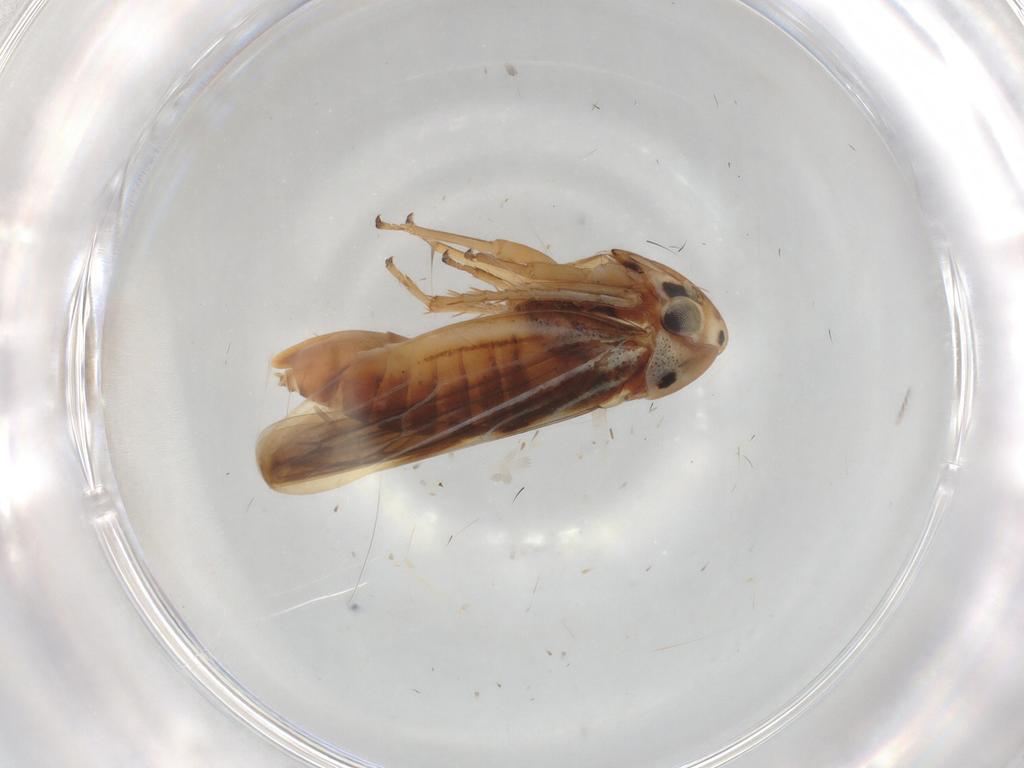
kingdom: Animalia
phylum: Arthropoda
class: Insecta
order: Hemiptera
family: Cicadellidae
